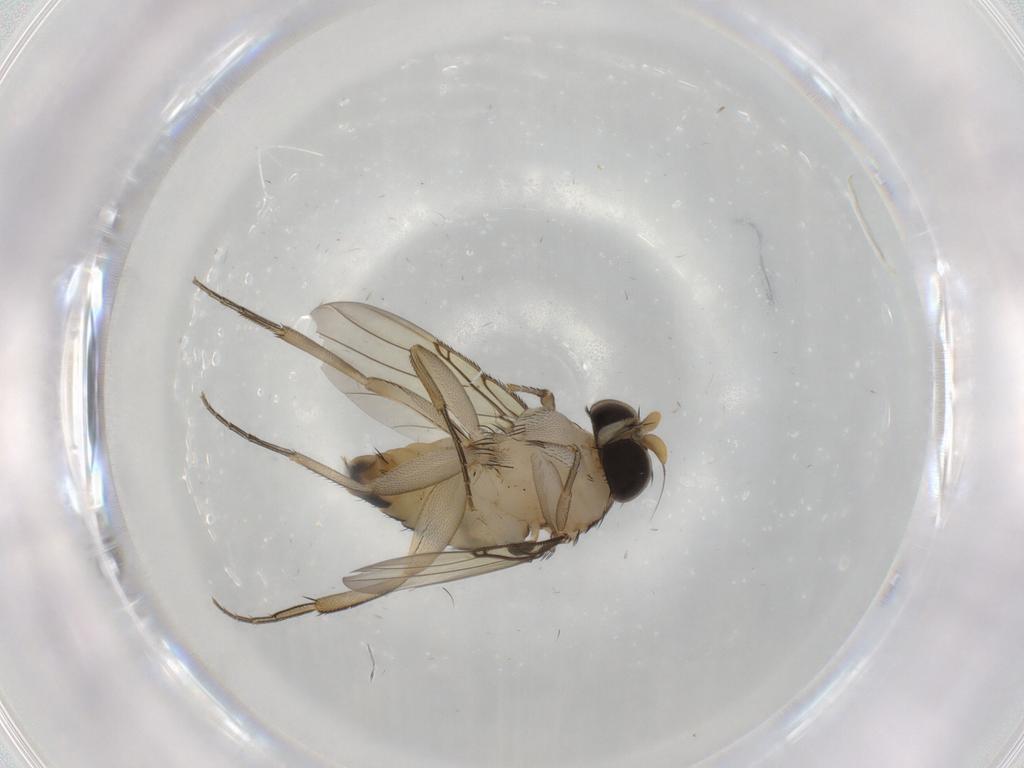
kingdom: Animalia
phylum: Arthropoda
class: Insecta
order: Diptera
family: Phoridae
